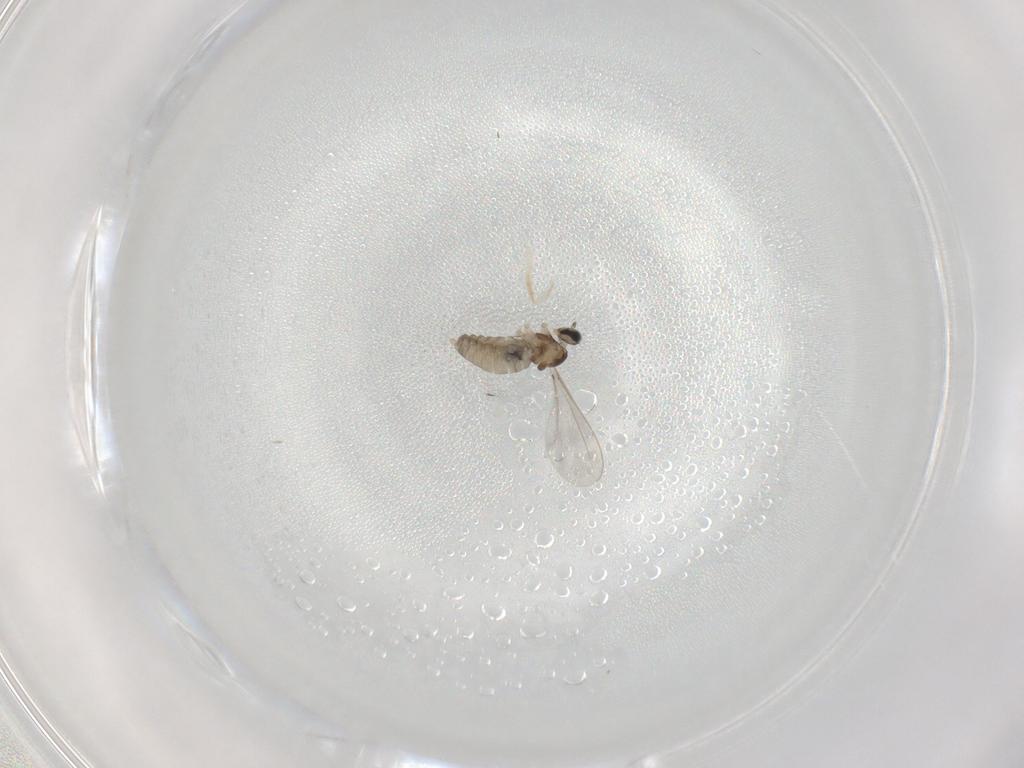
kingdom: Animalia
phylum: Arthropoda
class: Insecta
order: Diptera
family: Cecidomyiidae
